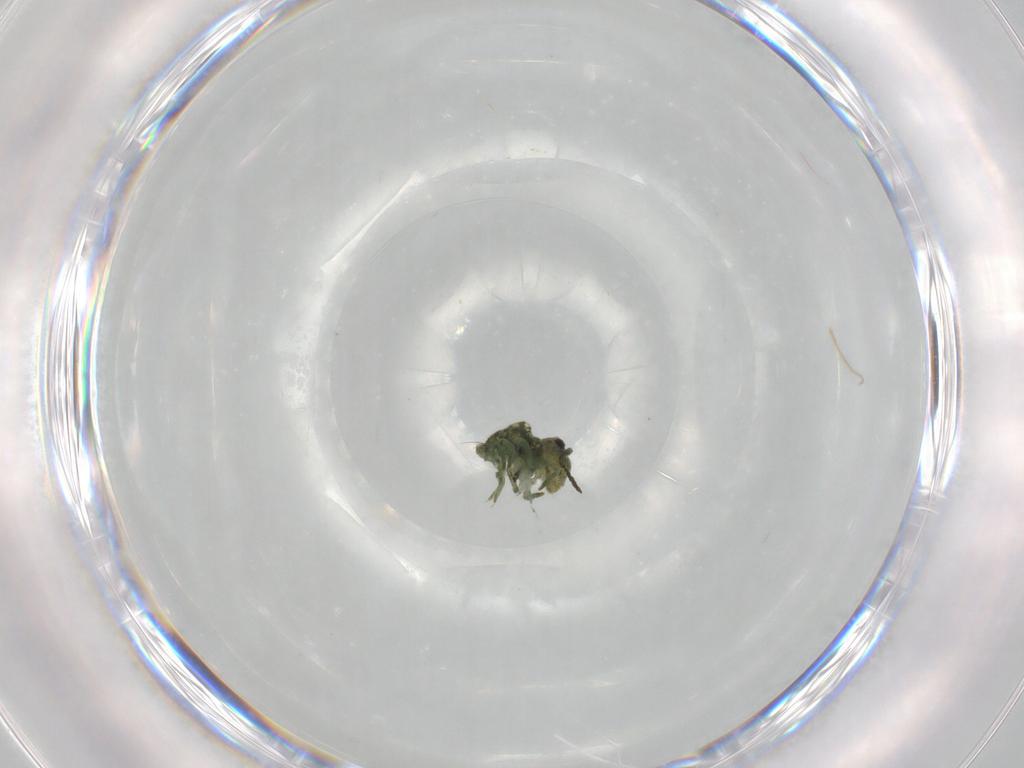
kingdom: Animalia
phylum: Arthropoda
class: Collembola
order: Symphypleona
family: Sminthuridae
